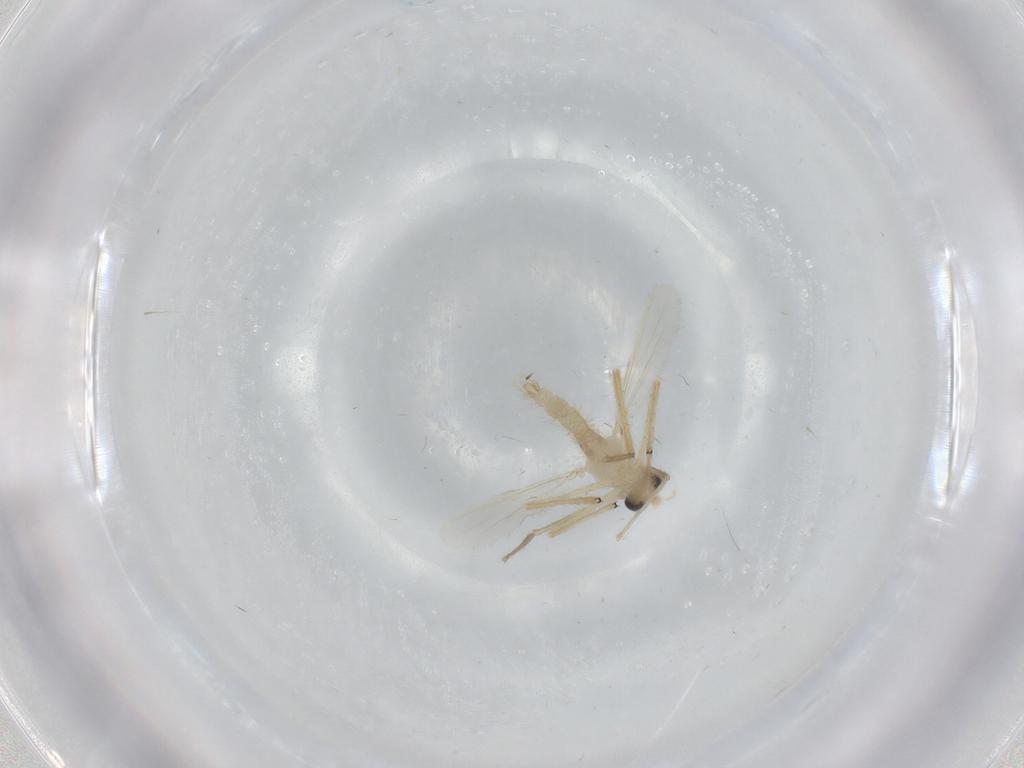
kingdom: Animalia
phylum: Arthropoda
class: Insecta
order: Diptera
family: Chironomidae
